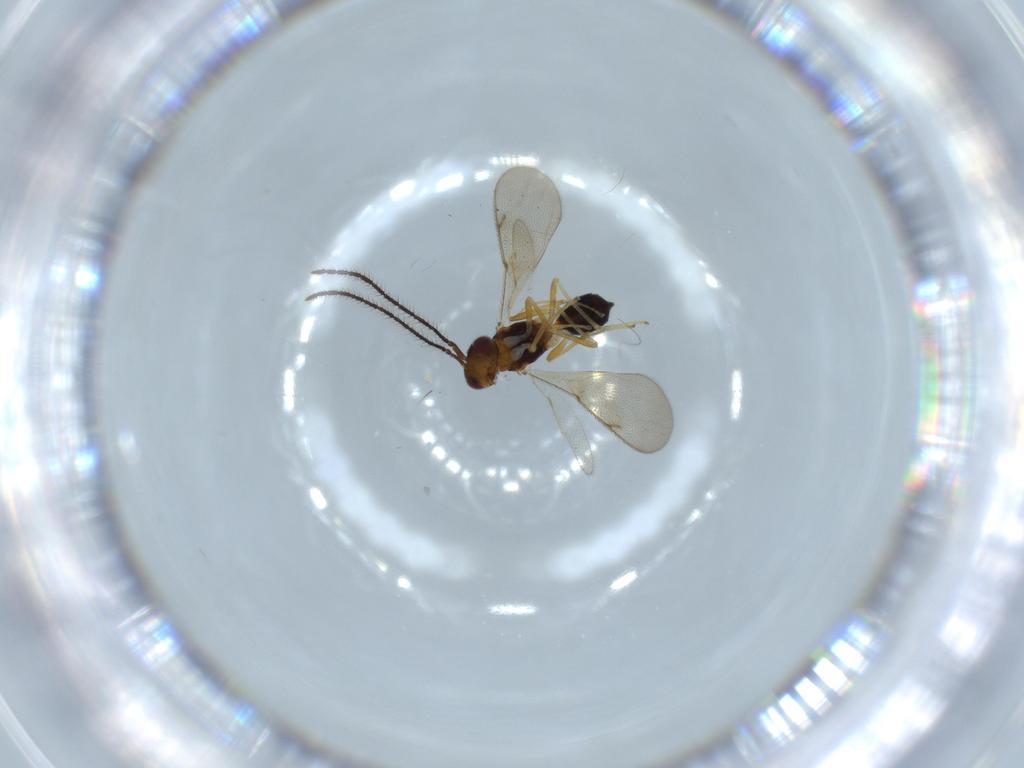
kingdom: Animalia
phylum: Arthropoda
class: Insecta
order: Hymenoptera
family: Diparidae
